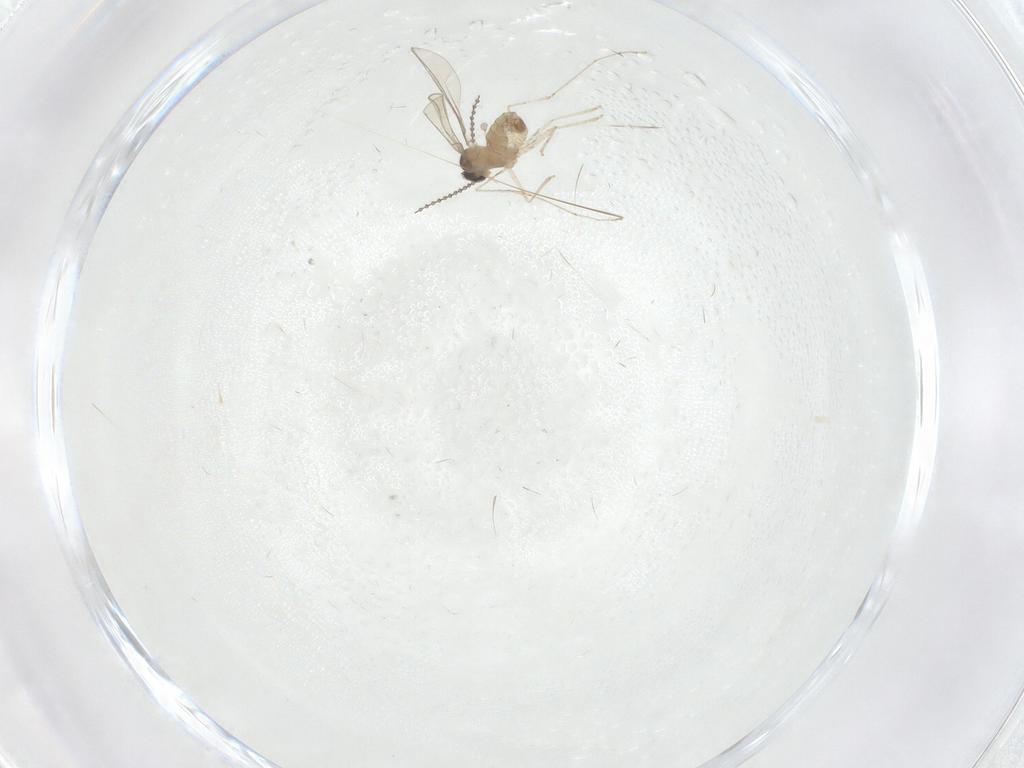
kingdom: Animalia
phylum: Arthropoda
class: Insecta
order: Diptera
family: Cecidomyiidae
